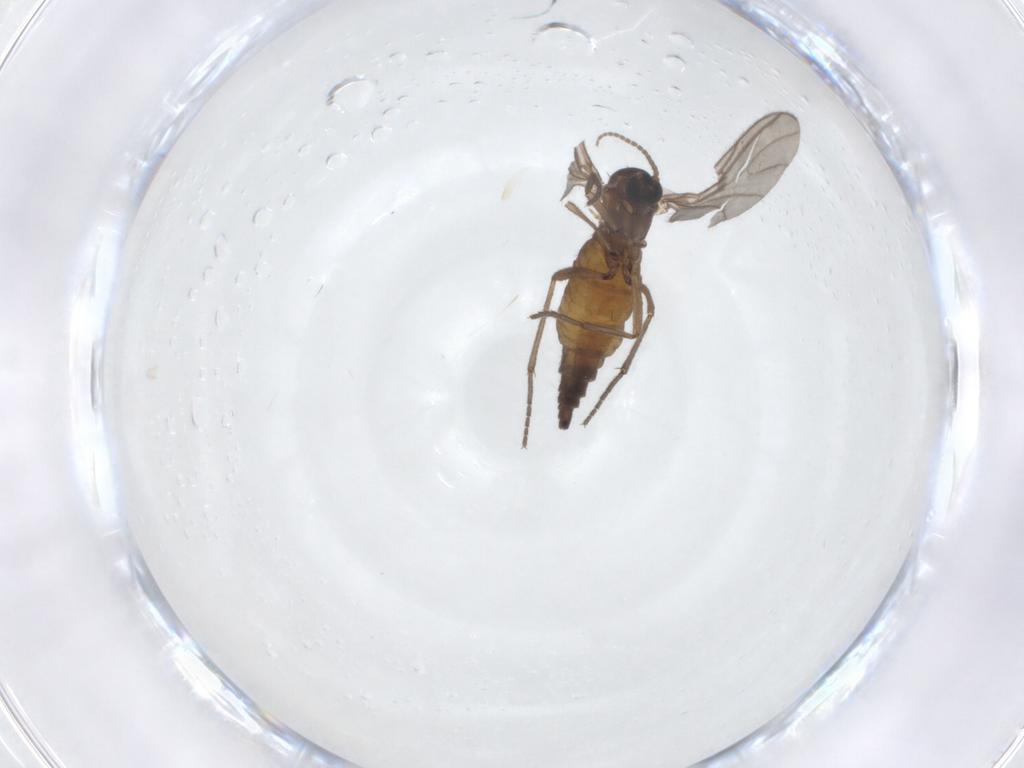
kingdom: Animalia
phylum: Arthropoda
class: Insecta
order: Diptera
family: Sciaridae
